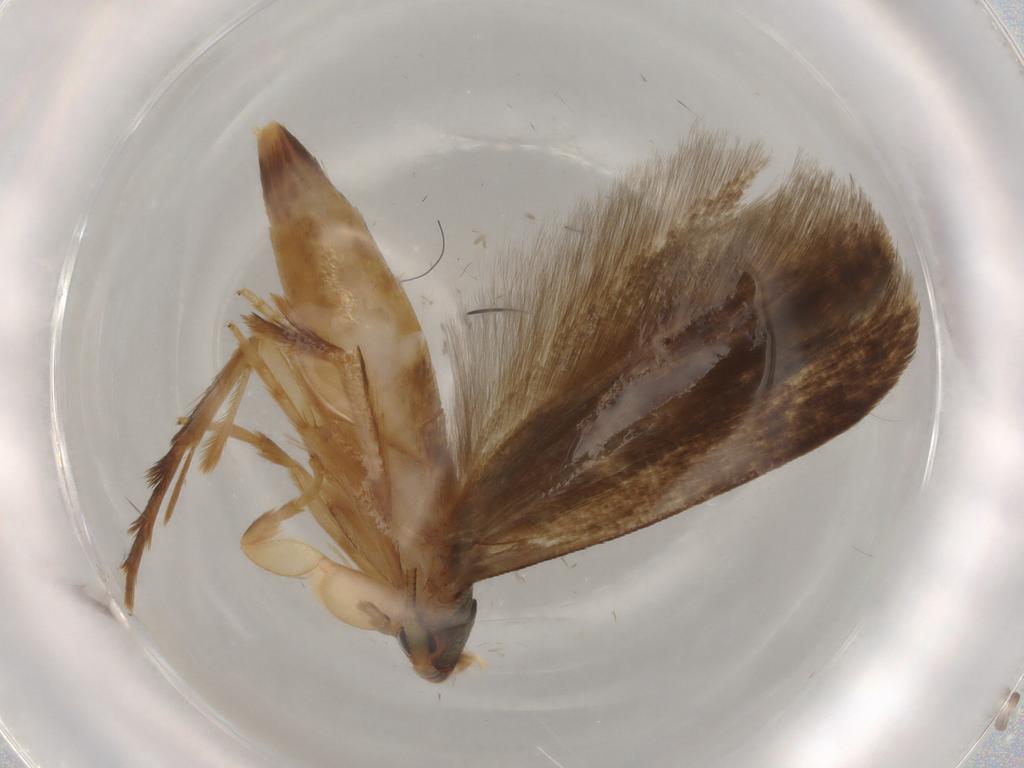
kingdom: Animalia
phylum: Arthropoda
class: Insecta
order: Lepidoptera
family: Tineidae
